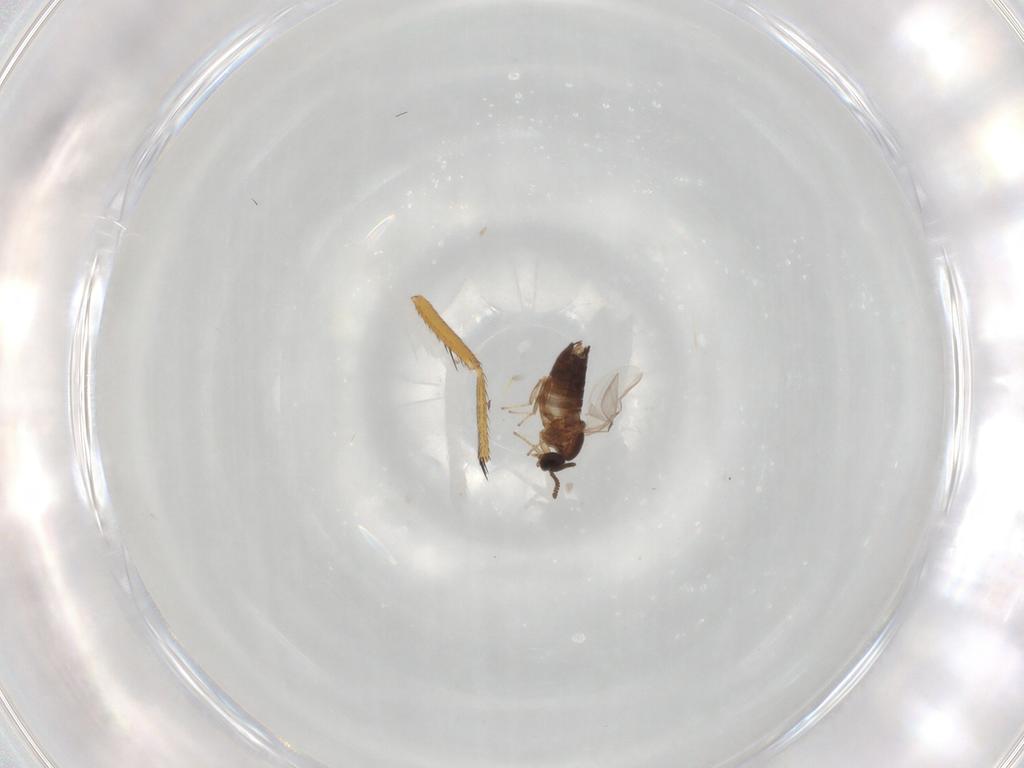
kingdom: Animalia
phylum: Arthropoda
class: Insecta
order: Diptera
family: Scatopsidae
